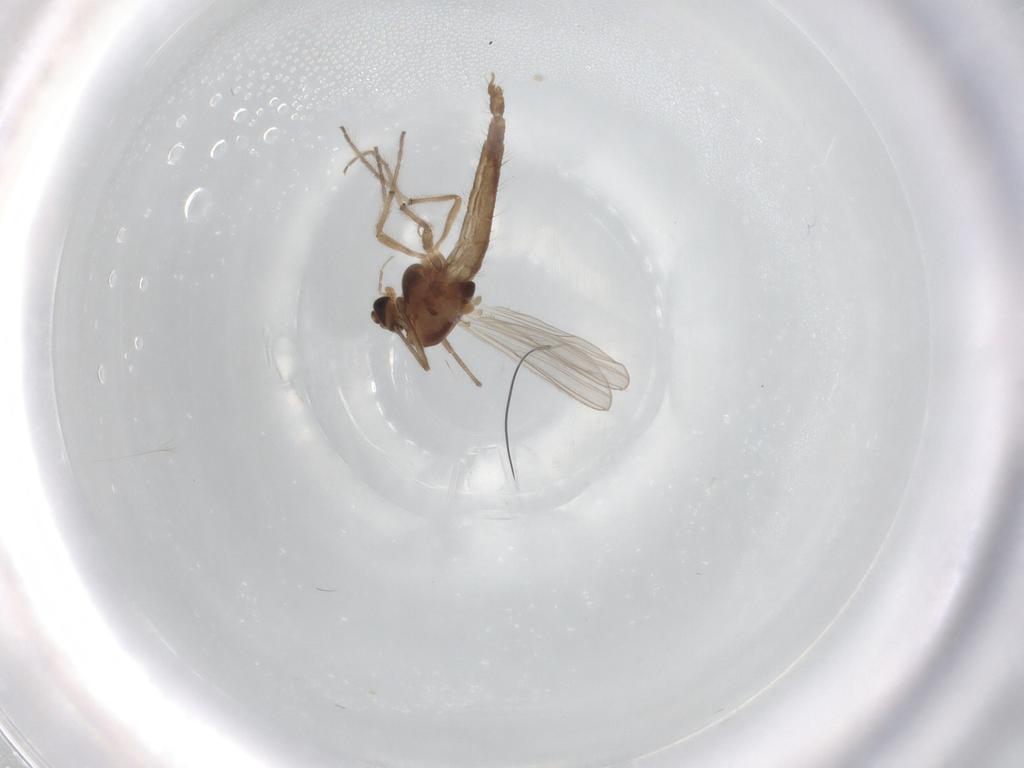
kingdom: Animalia
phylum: Arthropoda
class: Insecta
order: Diptera
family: Chironomidae
